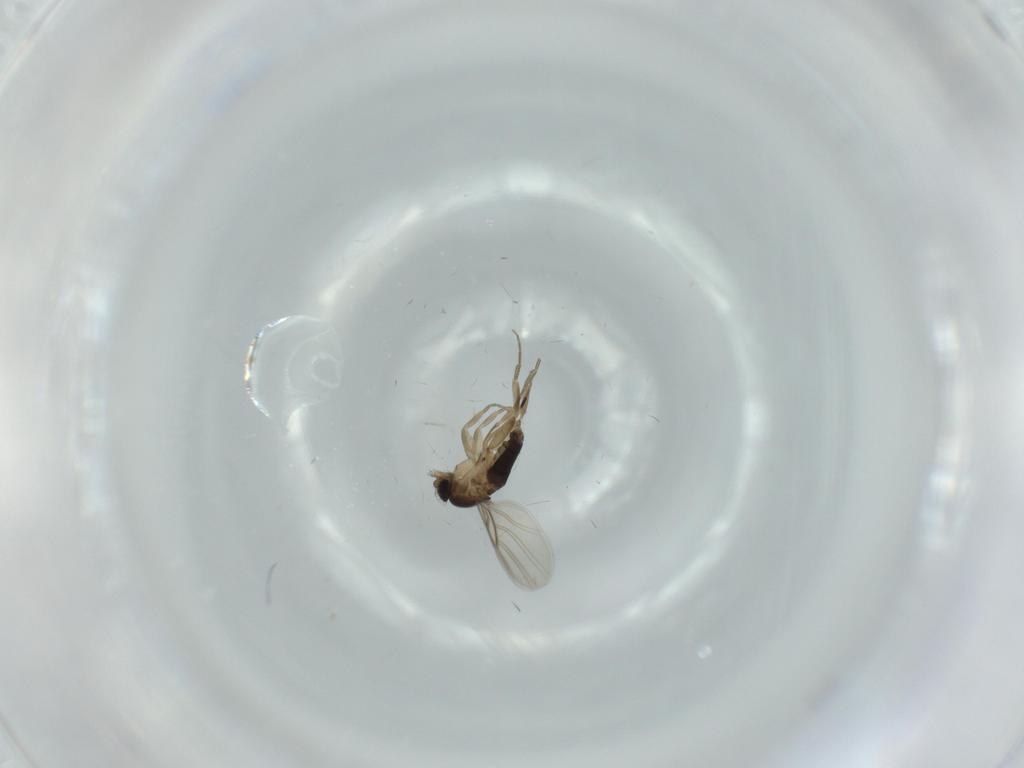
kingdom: Animalia
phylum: Arthropoda
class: Insecta
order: Diptera
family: Phoridae
